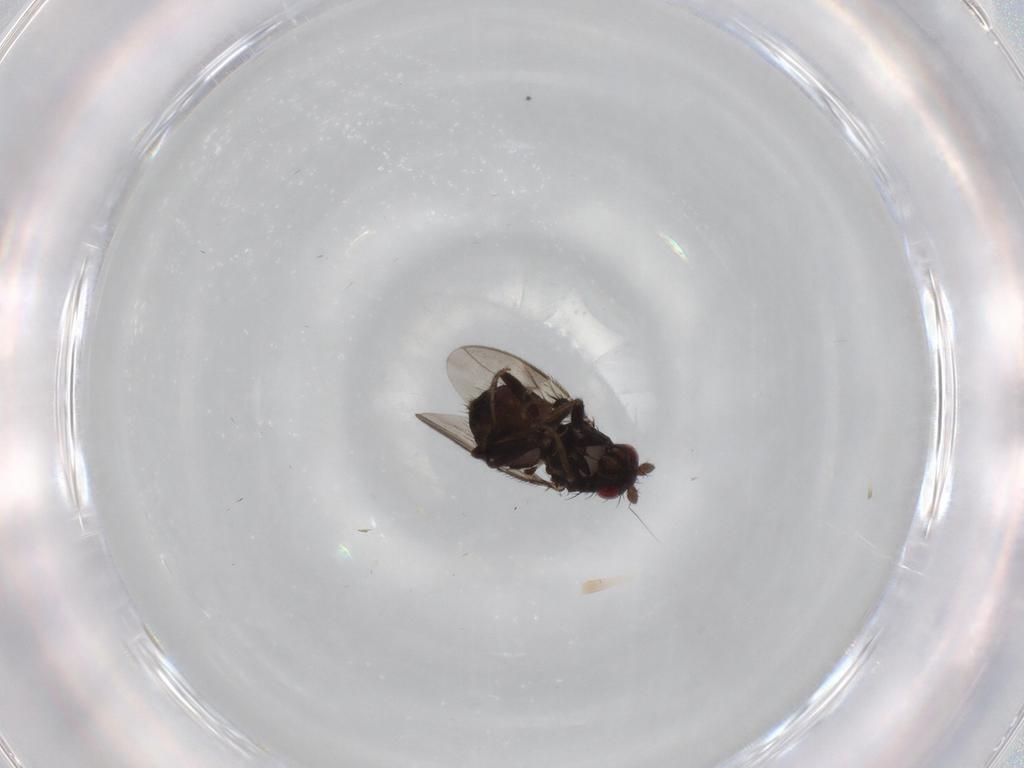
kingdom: Animalia
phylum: Arthropoda
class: Insecta
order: Diptera
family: Sphaeroceridae
